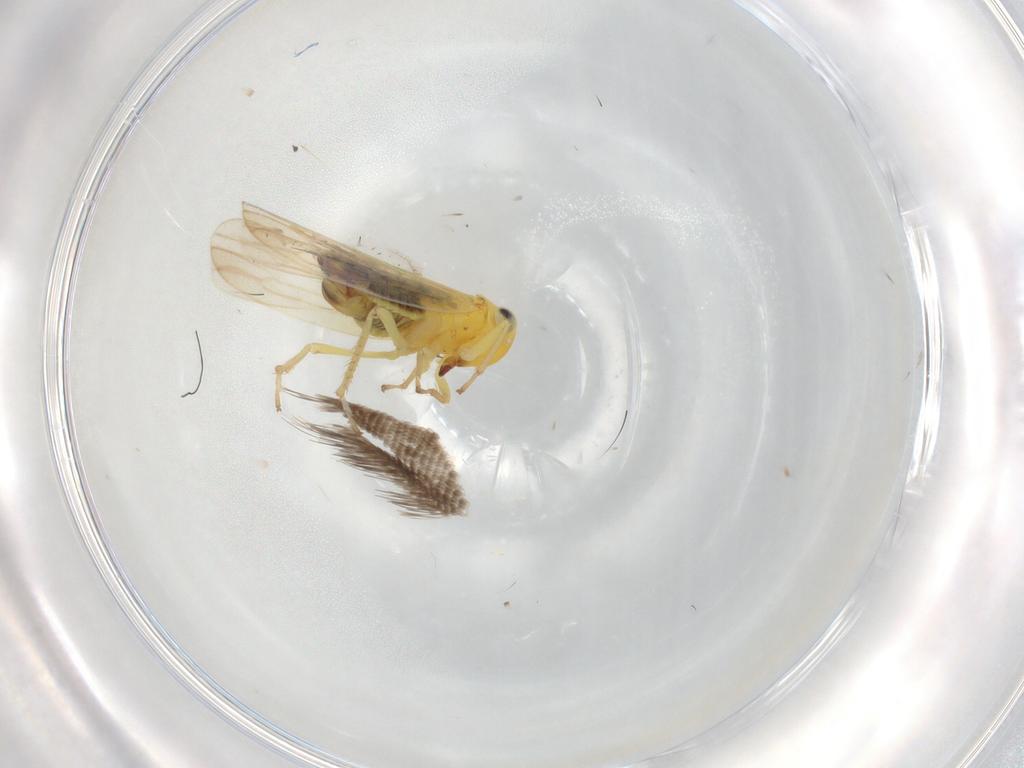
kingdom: Animalia
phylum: Arthropoda
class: Insecta
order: Hemiptera
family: Cicadellidae
